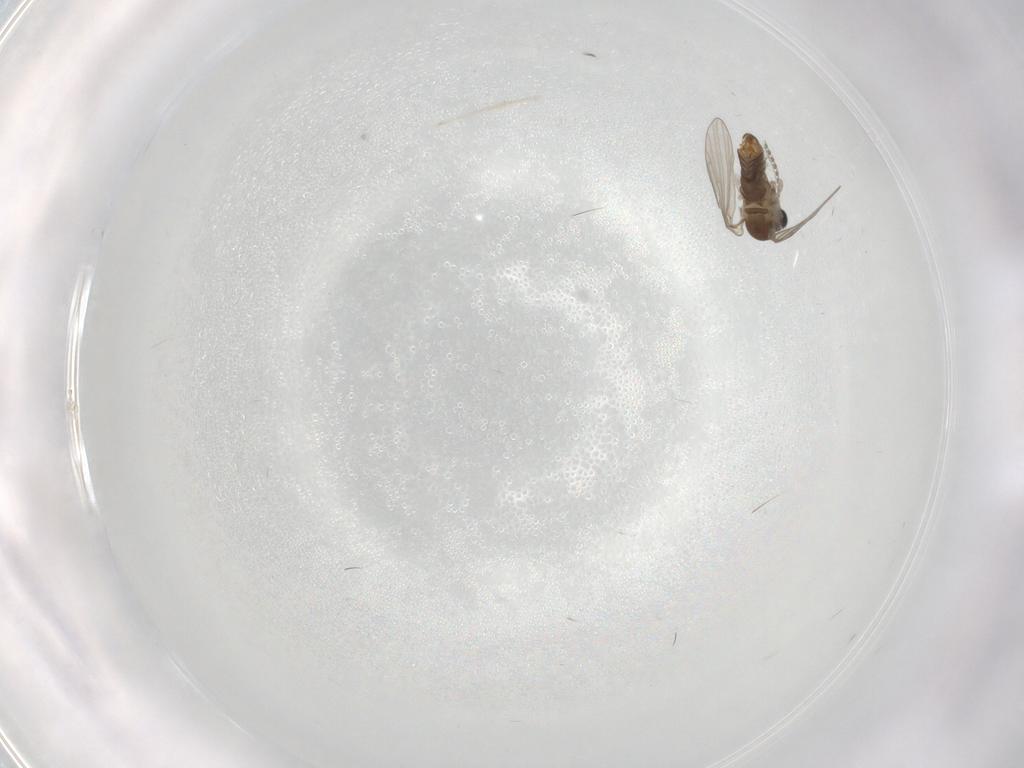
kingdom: Animalia
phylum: Arthropoda
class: Insecta
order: Diptera
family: Chironomidae
